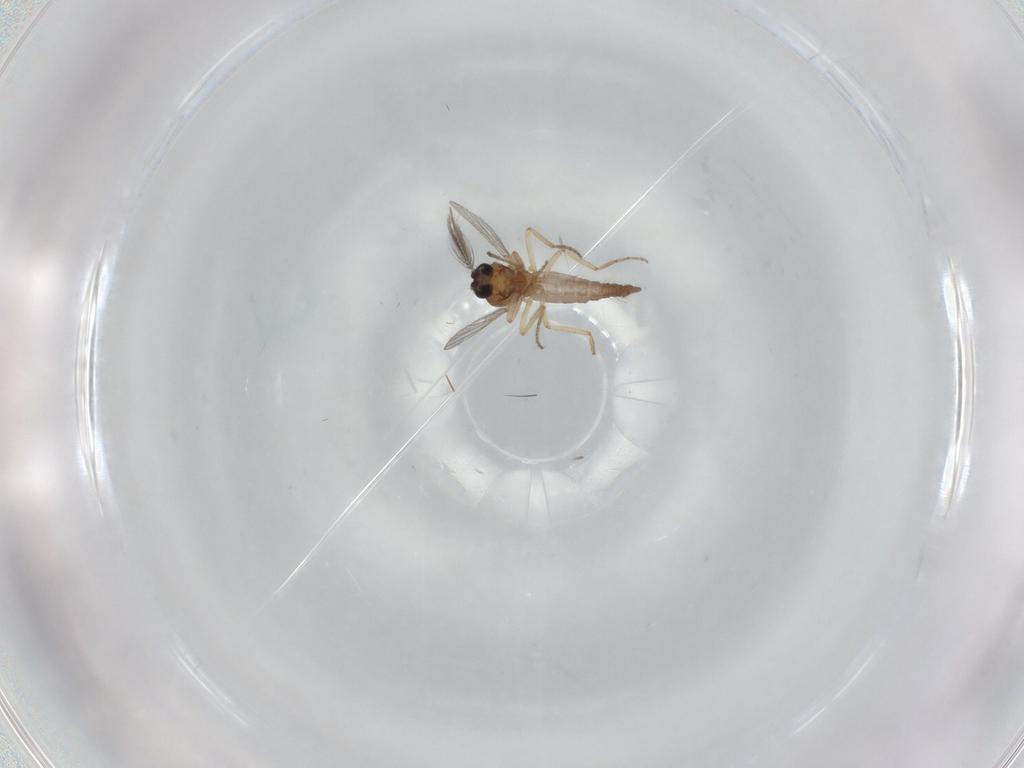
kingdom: Animalia
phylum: Arthropoda
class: Insecta
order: Diptera
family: Ceratopogonidae
